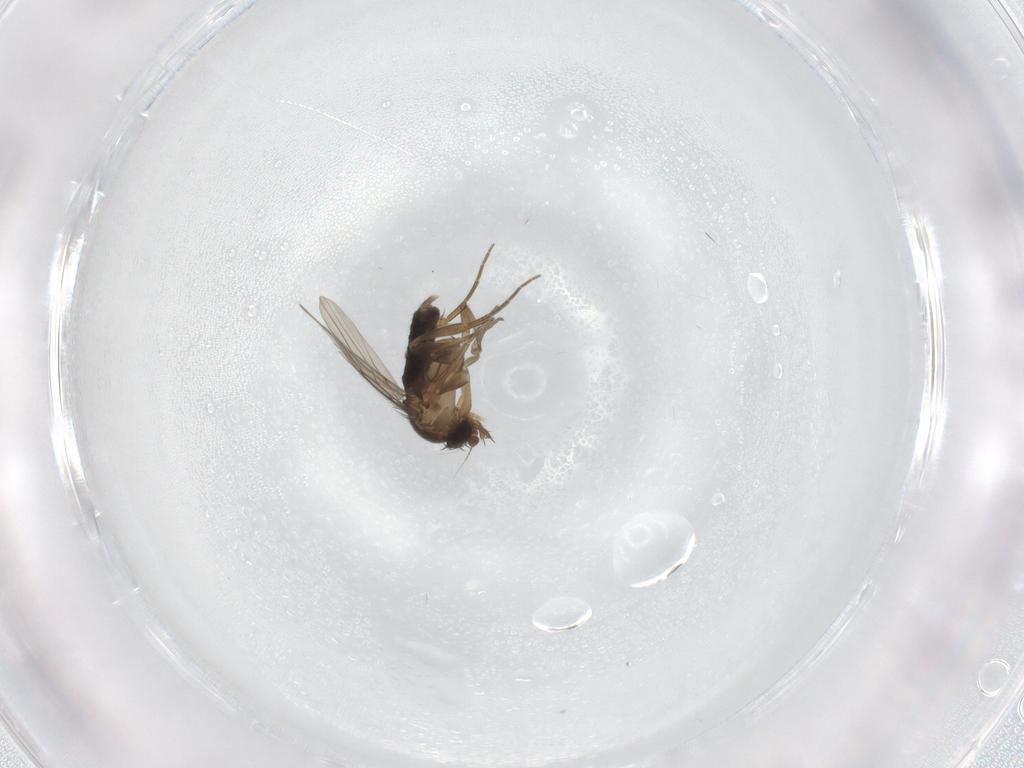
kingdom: Animalia
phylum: Arthropoda
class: Insecta
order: Diptera
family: Phoridae
